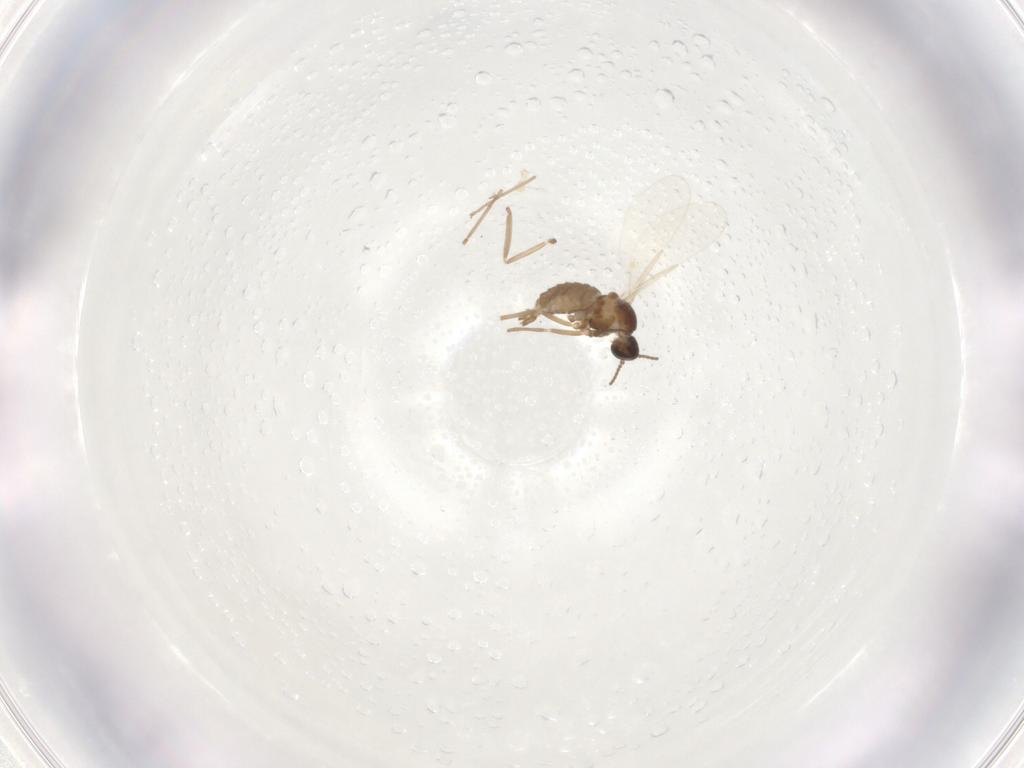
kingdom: Animalia
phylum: Arthropoda
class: Insecta
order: Diptera
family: Cecidomyiidae
